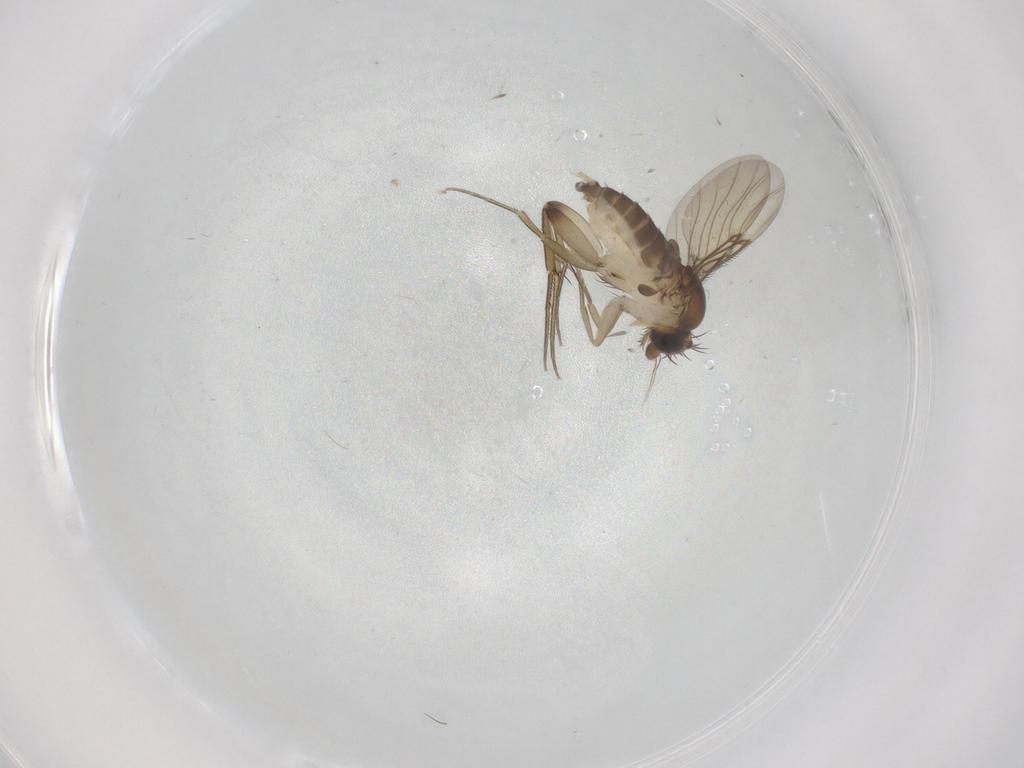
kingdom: Animalia
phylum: Arthropoda
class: Insecta
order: Diptera
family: Phoridae
